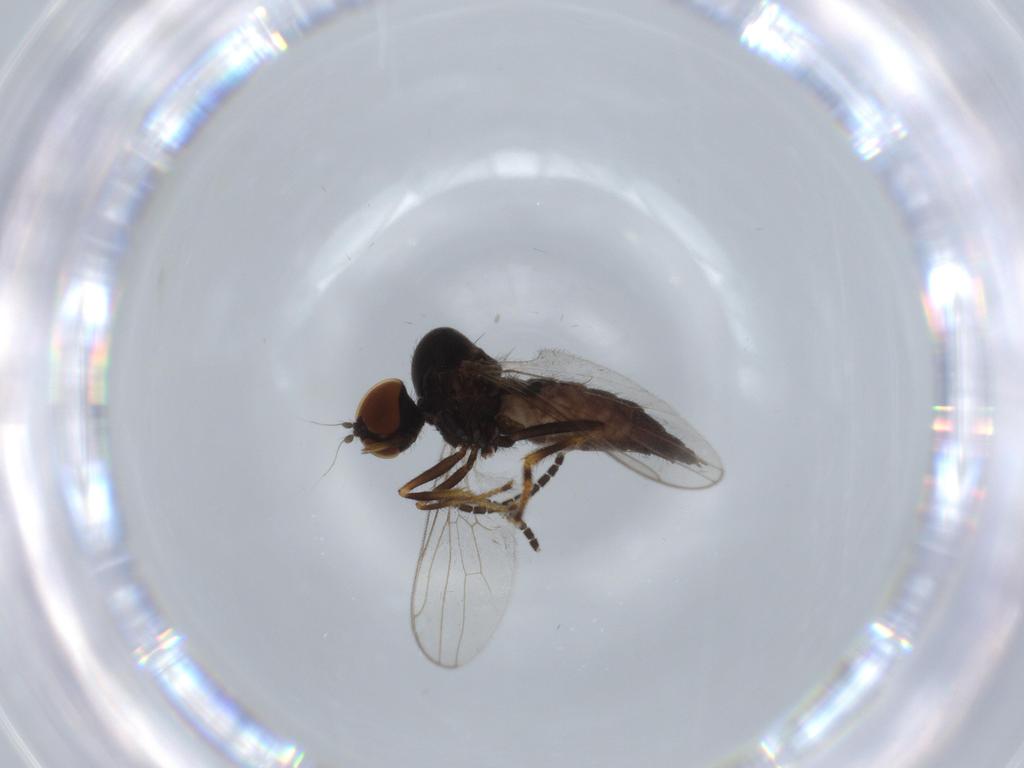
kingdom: Animalia
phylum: Arthropoda
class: Insecta
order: Diptera
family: Hybotidae
